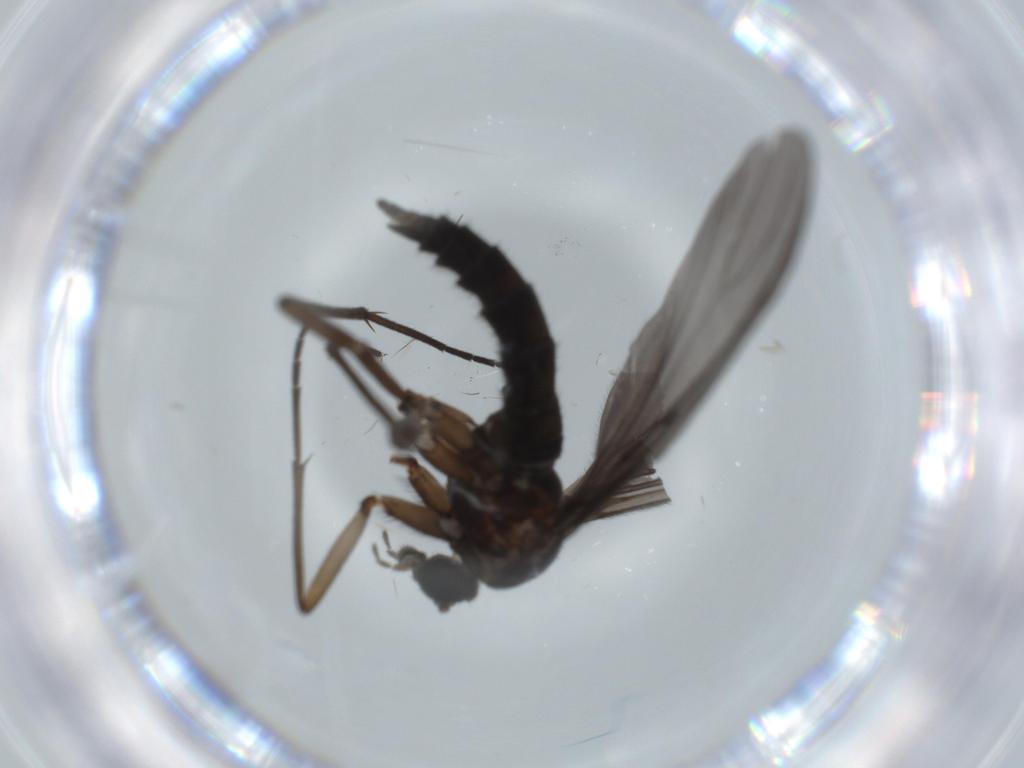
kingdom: Animalia
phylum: Arthropoda
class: Insecta
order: Diptera
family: Sciaridae
